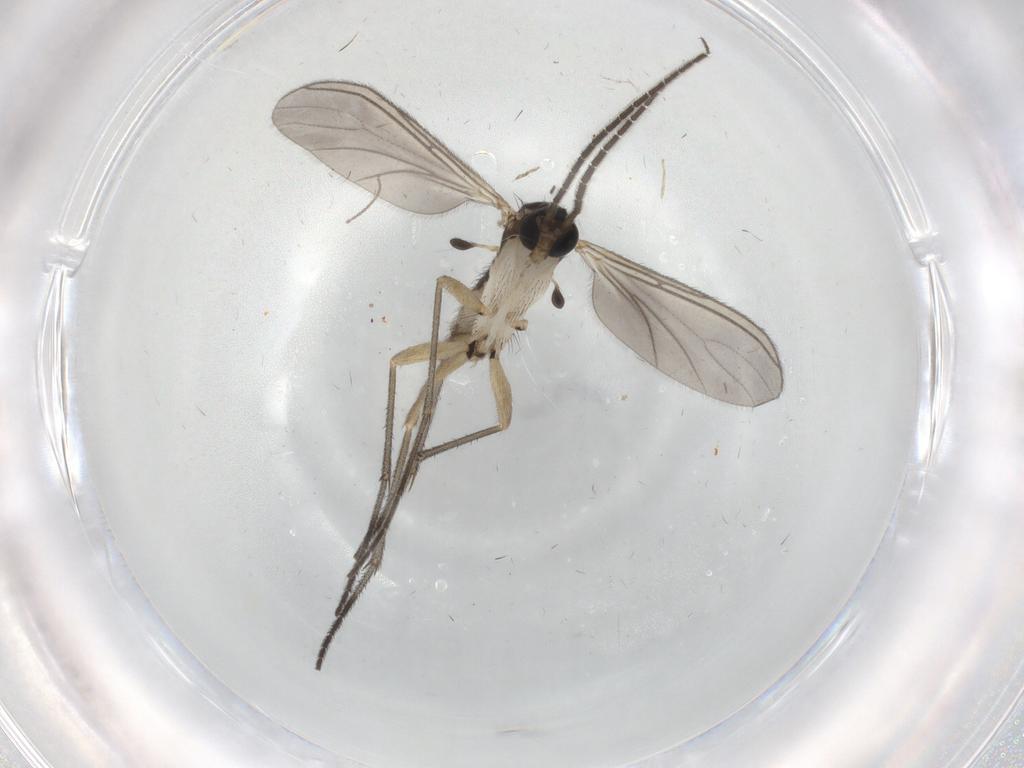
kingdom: Animalia
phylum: Arthropoda
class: Insecta
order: Diptera
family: Sciaridae
